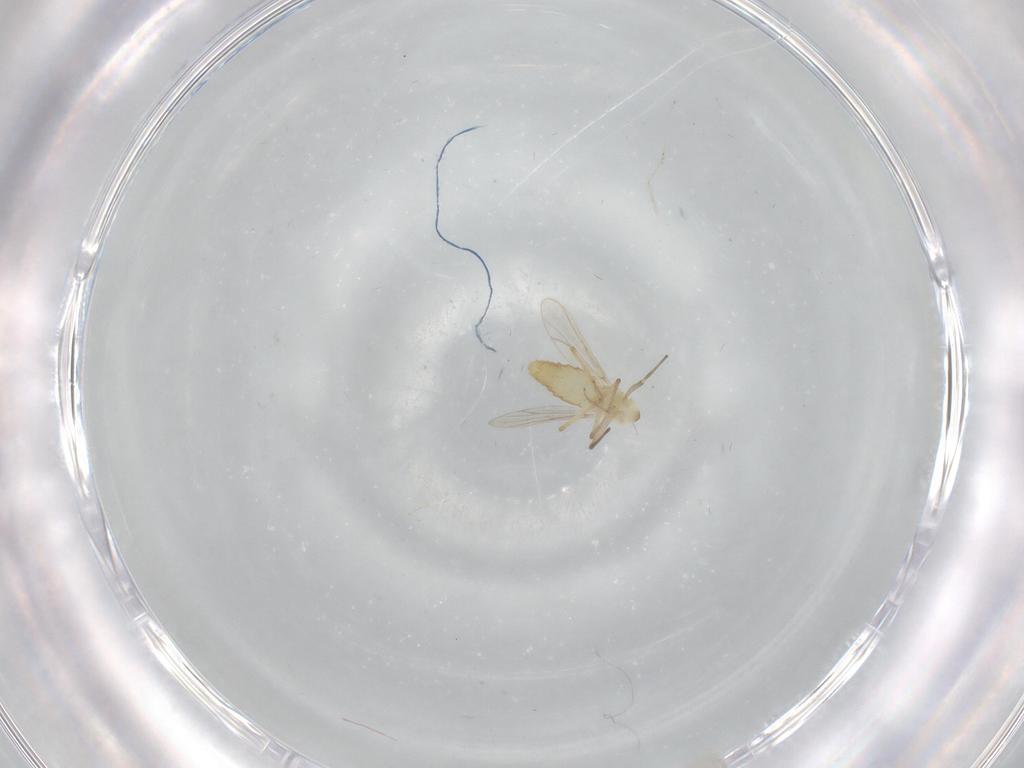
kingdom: Animalia
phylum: Arthropoda
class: Insecta
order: Diptera
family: Chironomidae
